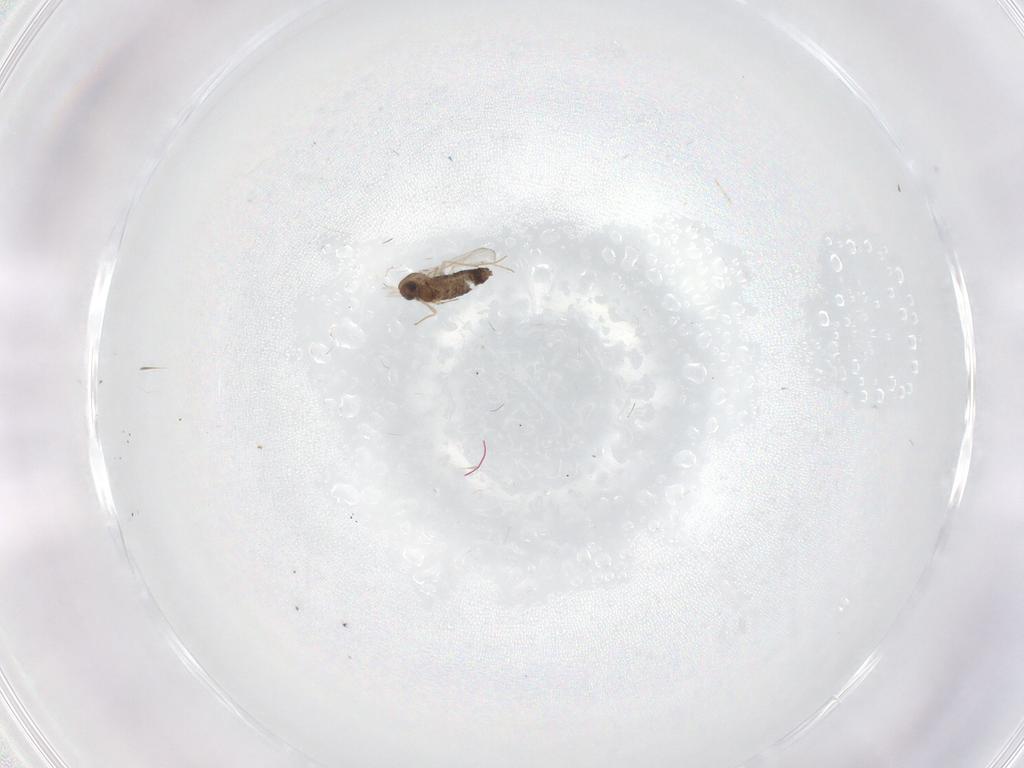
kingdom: Animalia
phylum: Arthropoda
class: Insecta
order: Diptera
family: Chironomidae
